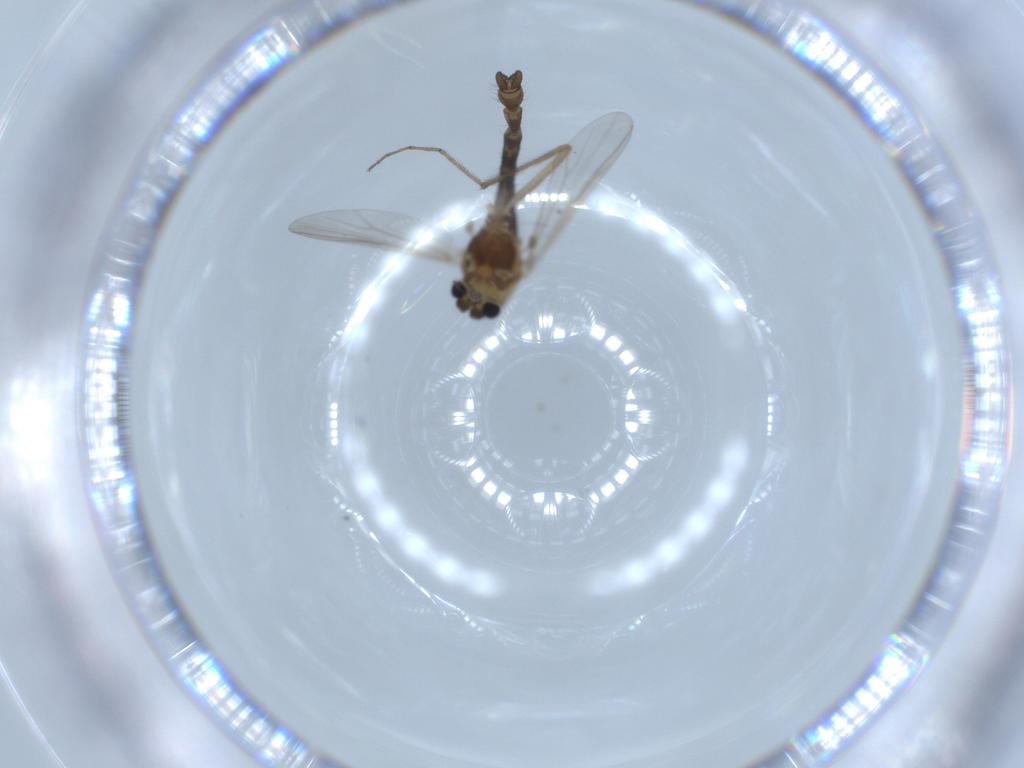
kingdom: Animalia
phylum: Arthropoda
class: Insecta
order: Diptera
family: Chironomidae
